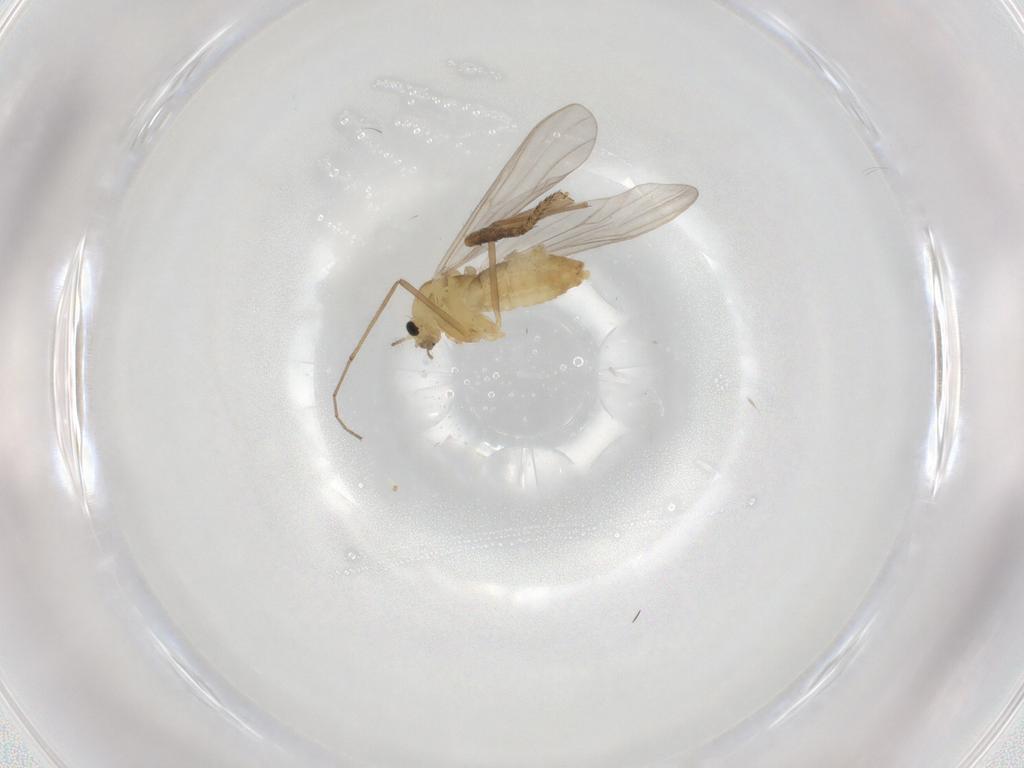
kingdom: Animalia
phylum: Arthropoda
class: Insecta
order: Diptera
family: Chironomidae
